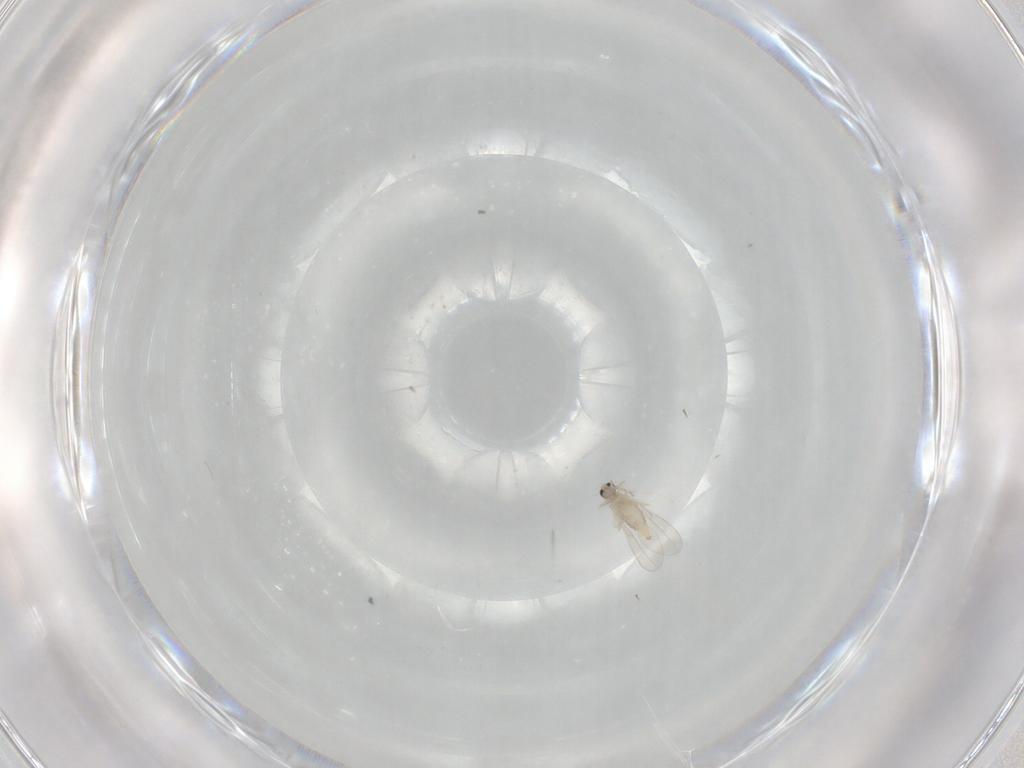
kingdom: Animalia
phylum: Arthropoda
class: Insecta
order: Diptera
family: Cecidomyiidae
